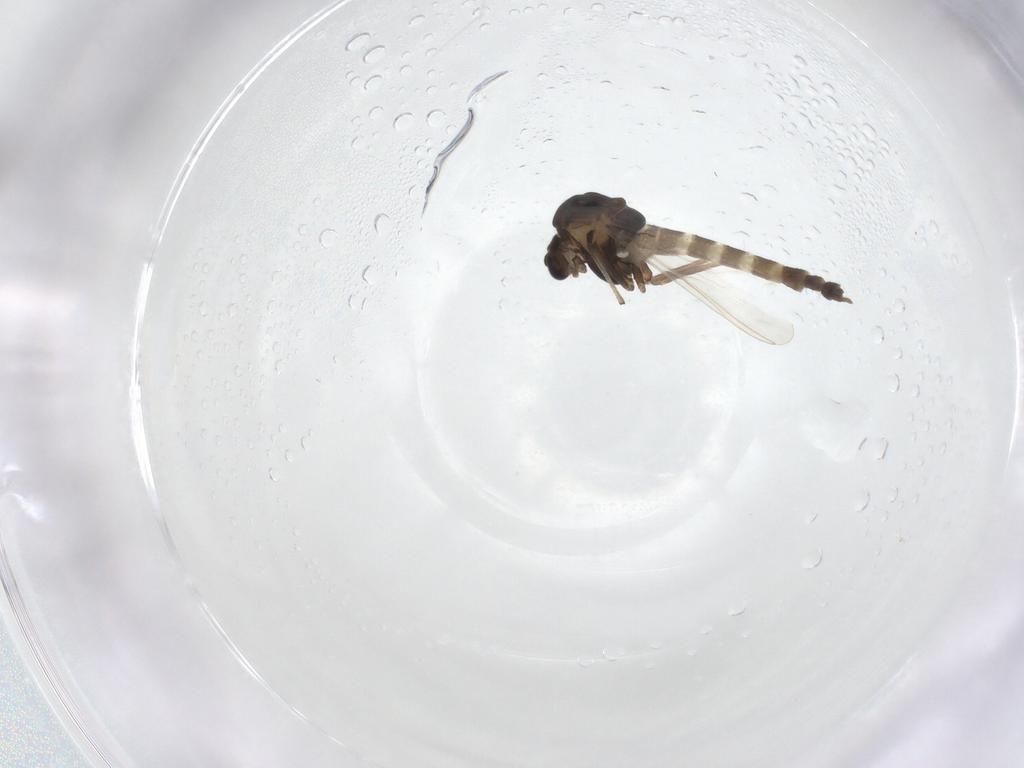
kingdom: Animalia
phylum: Arthropoda
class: Insecta
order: Diptera
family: Chironomidae
